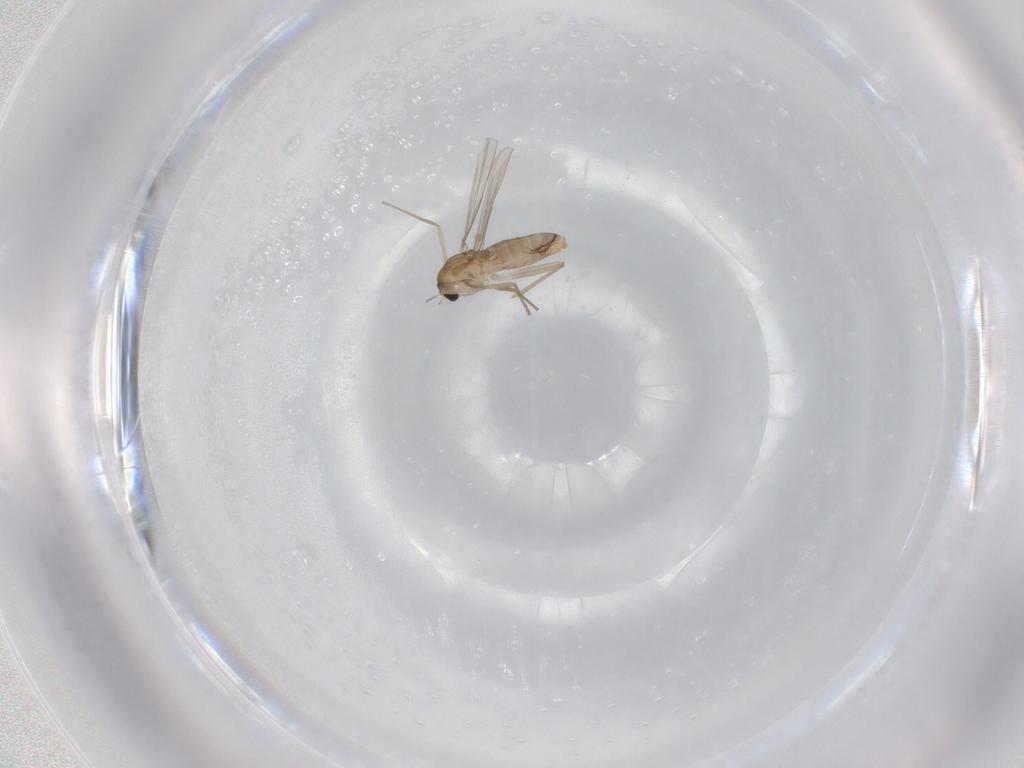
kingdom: Animalia
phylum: Arthropoda
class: Insecta
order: Diptera
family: Chironomidae
